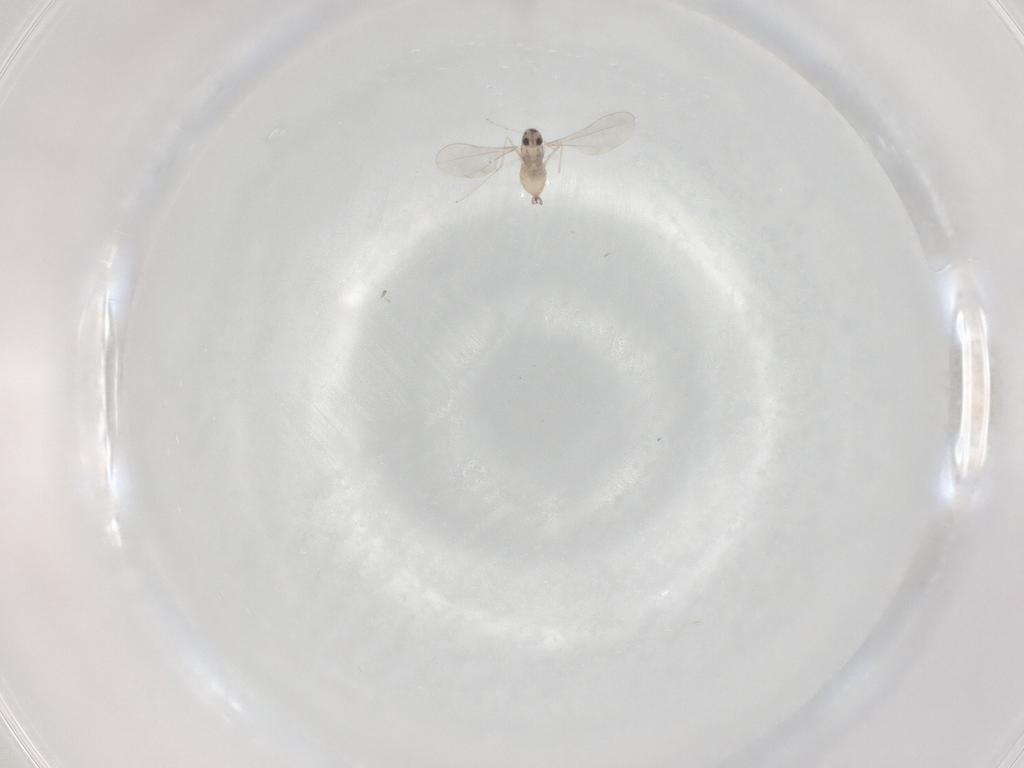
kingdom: Animalia
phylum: Arthropoda
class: Insecta
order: Diptera
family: Cecidomyiidae
